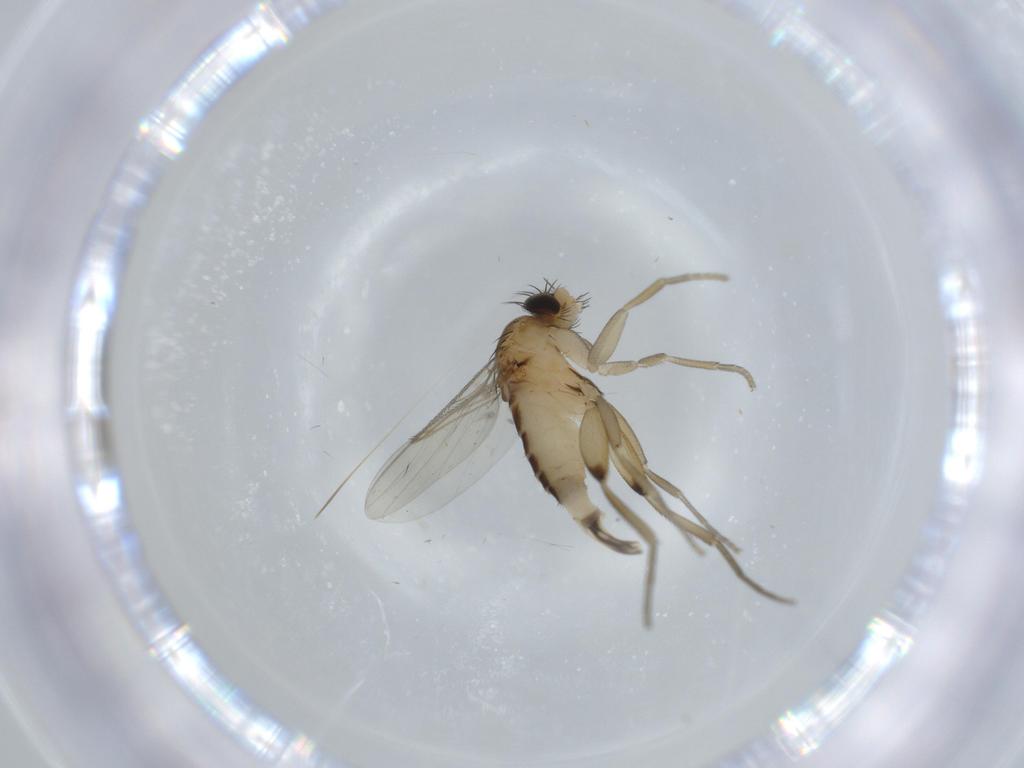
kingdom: Animalia
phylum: Arthropoda
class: Insecta
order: Diptera
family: Phoridae
